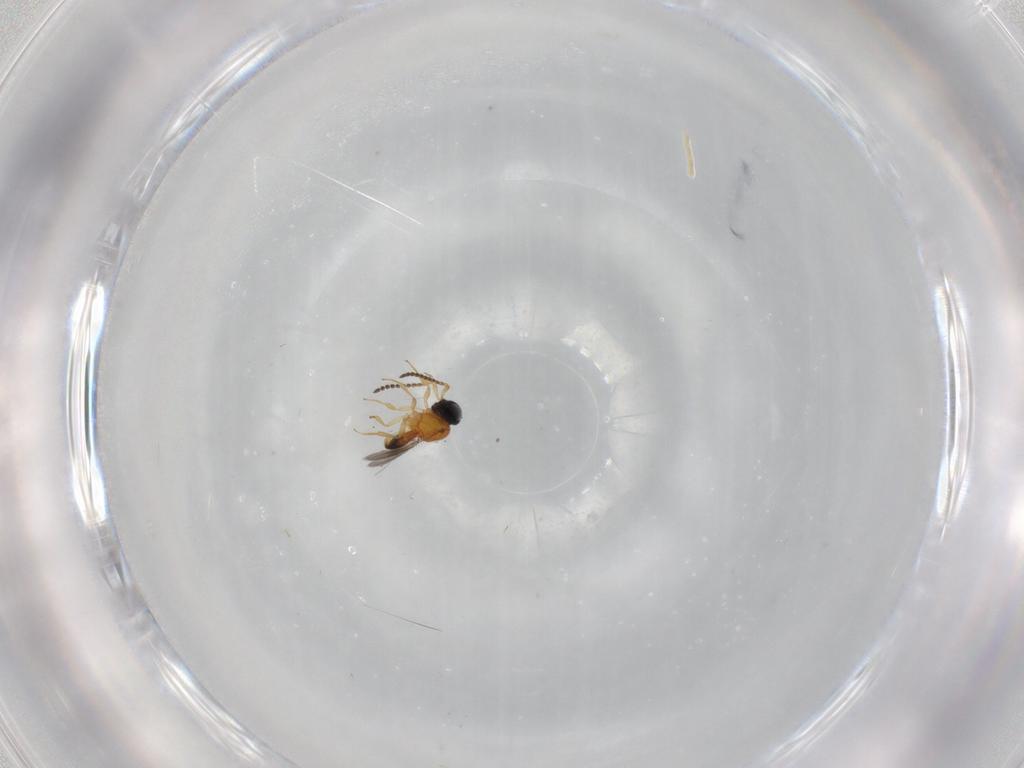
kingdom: Animalia
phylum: Arthropoda
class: Insecta
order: Hymenoptera
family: Scelionidae
